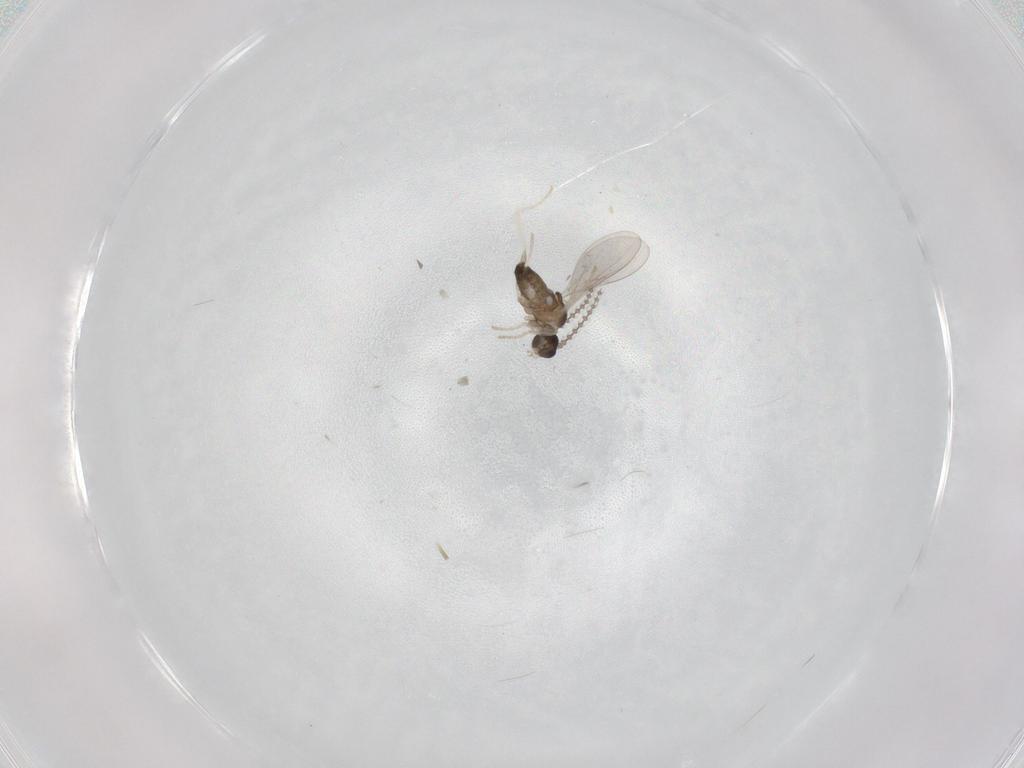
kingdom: Animalia
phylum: Arthropoda
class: Insecta
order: Diptera
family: Cecidomyiidae
